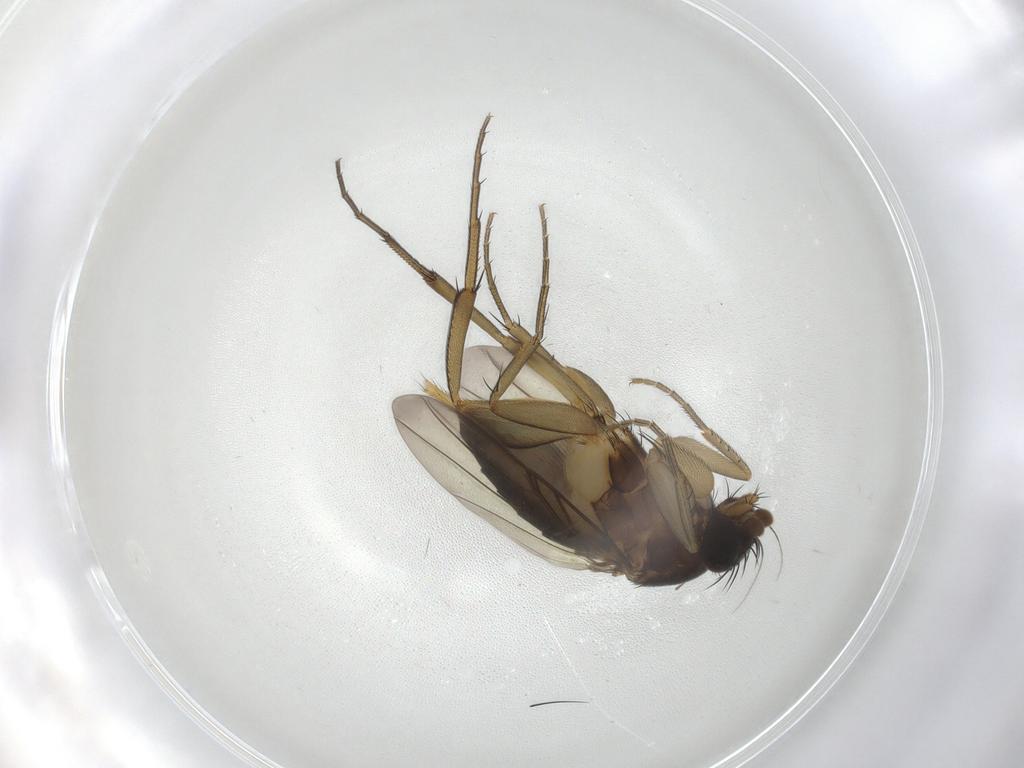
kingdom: Animalia
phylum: Arthropoda
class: Insecta
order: Diptera
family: Phoridae
